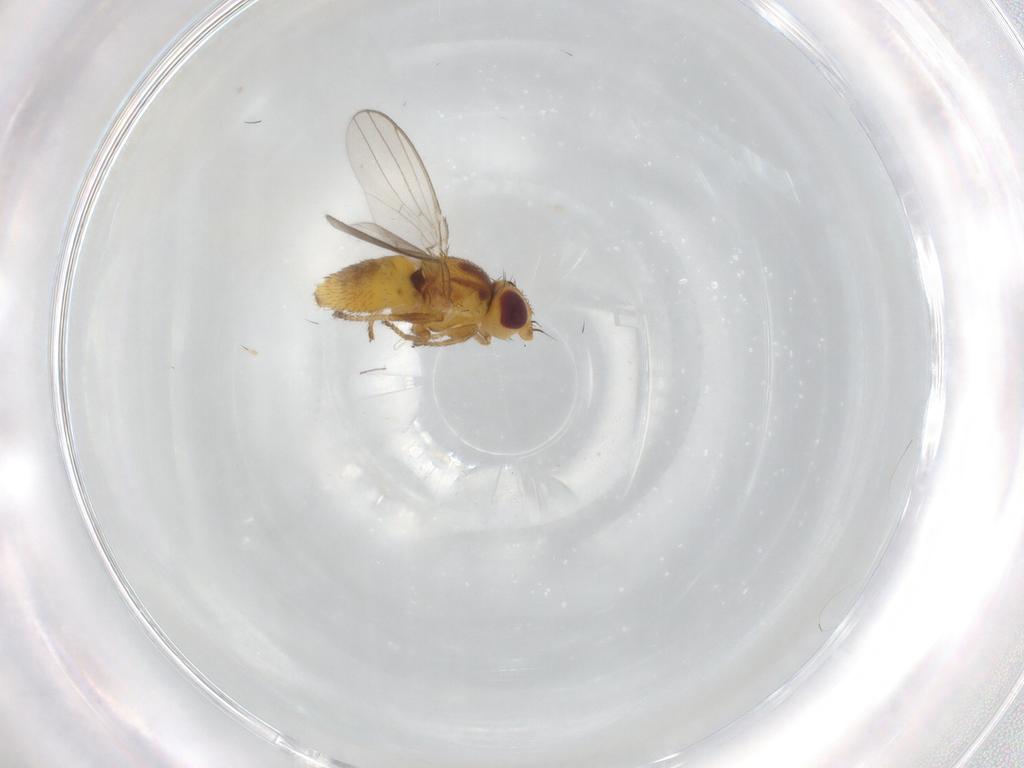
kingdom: Animalia
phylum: Arthropoda
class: Insecta
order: Diptera
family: Chloropidae
